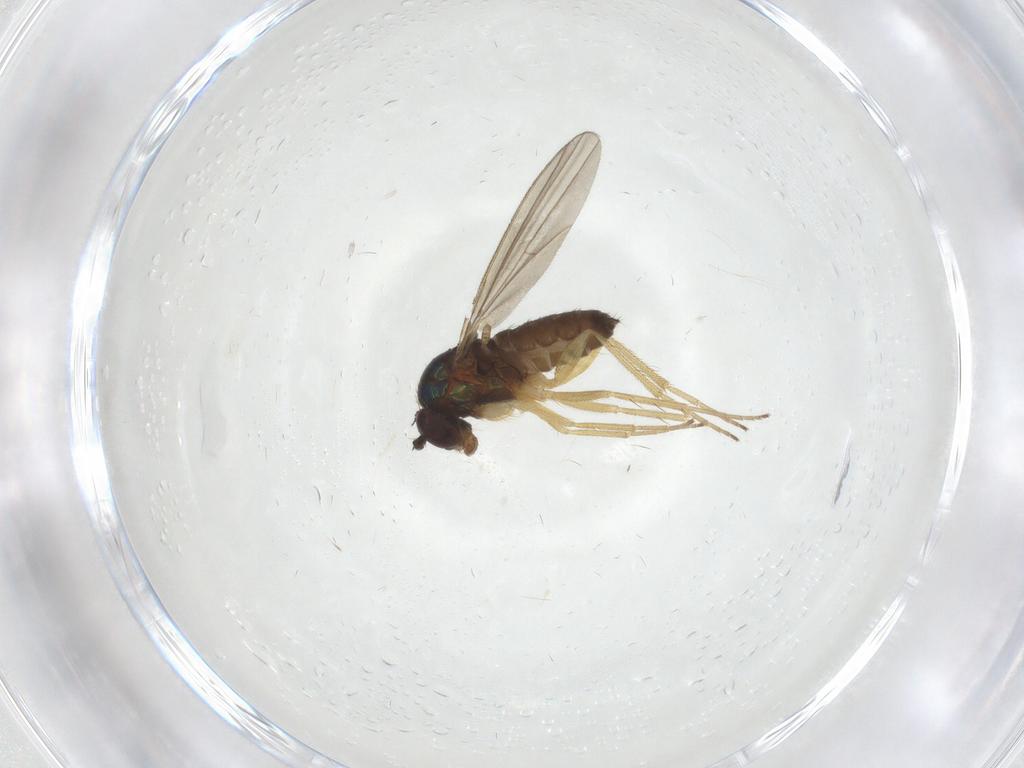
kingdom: Animalia
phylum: Arthropoda
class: Insecta
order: Diptera
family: Dolichopodidae
